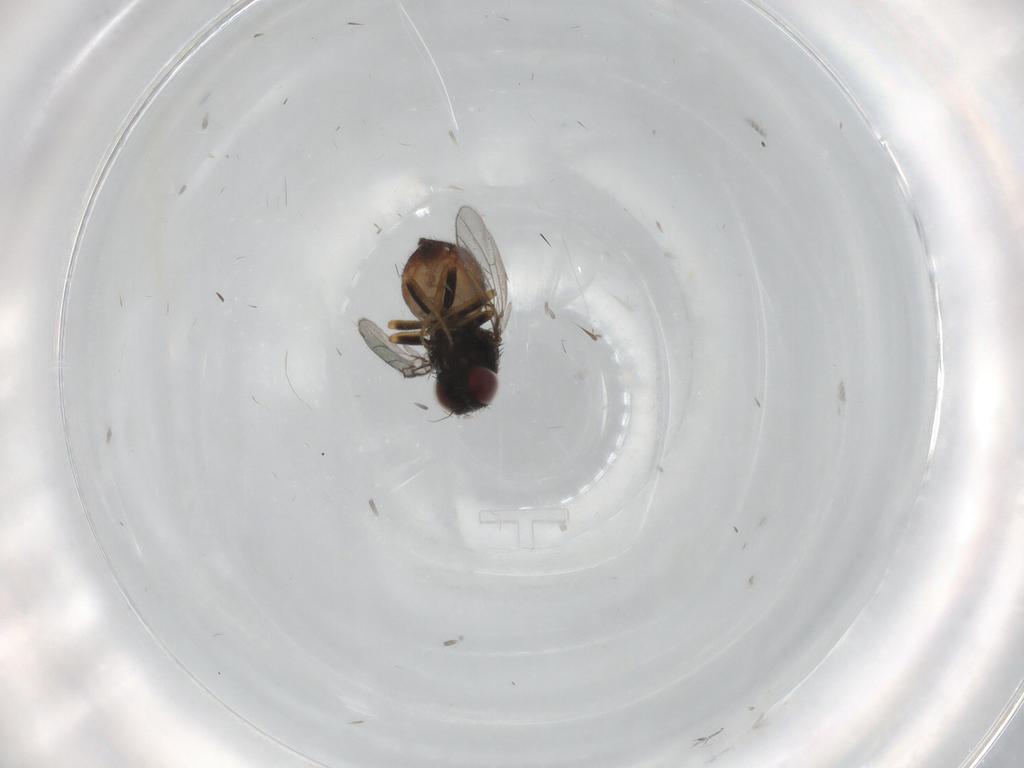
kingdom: Animalia
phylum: Arthropoda
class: Insecta
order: Diptera
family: Chloropidae
